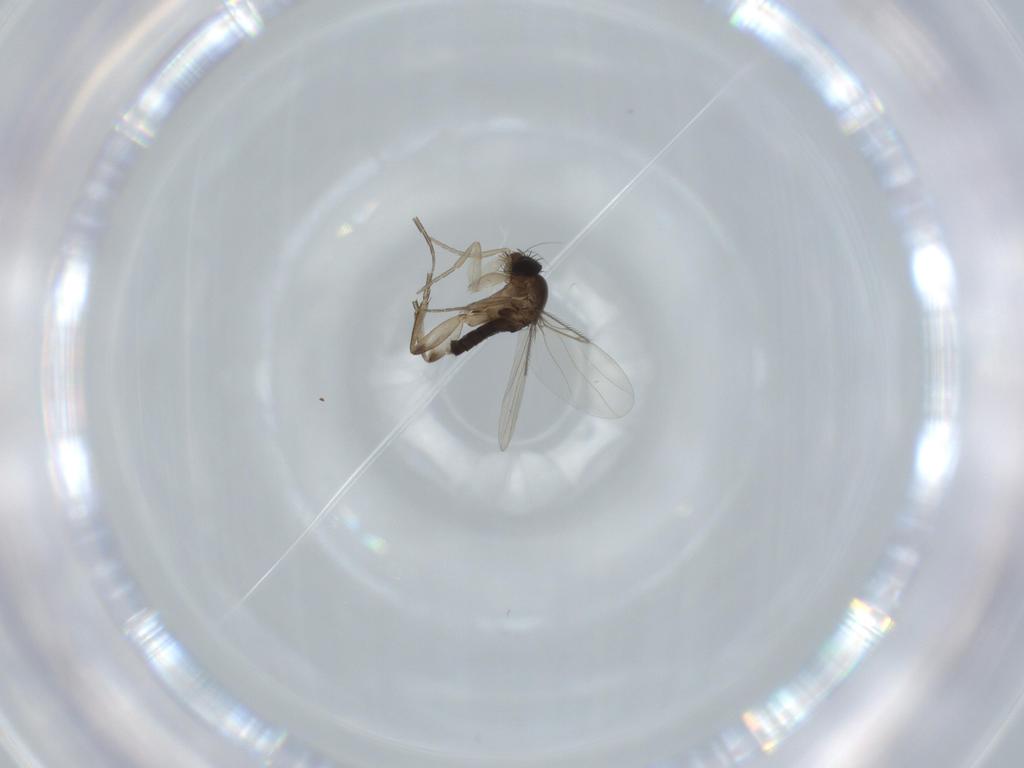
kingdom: Animalia
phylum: Arthropoda
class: Insecta
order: Diptera
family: Phoridae
